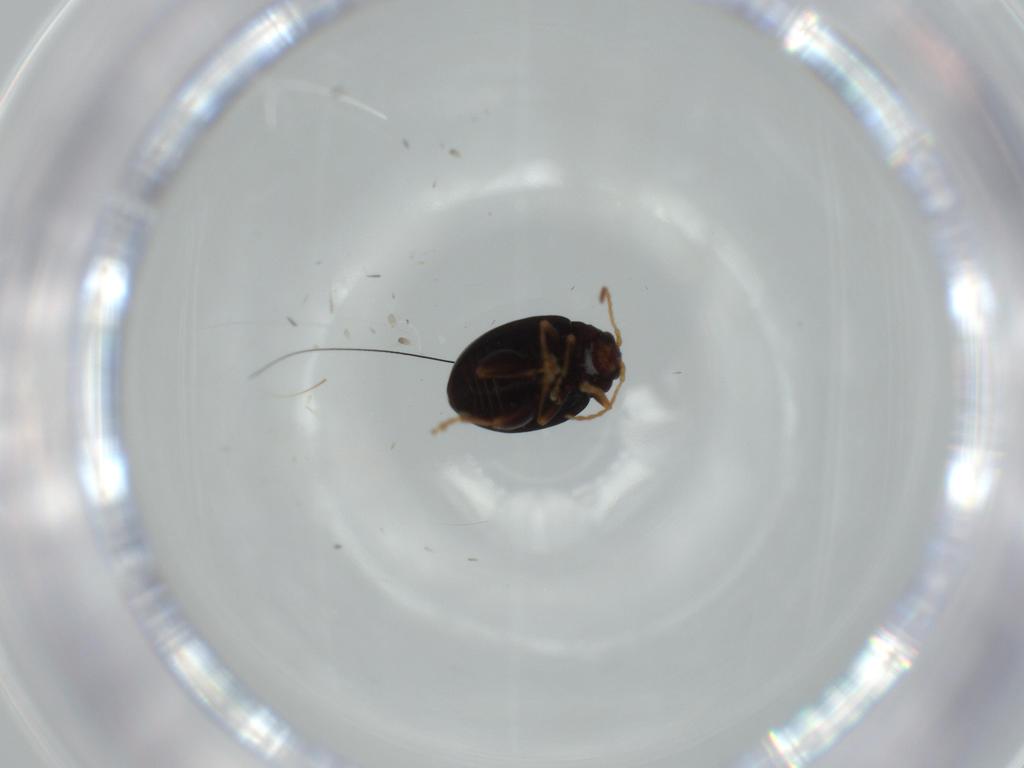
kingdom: Animalia
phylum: Arthropoda
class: Insecta
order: Coleoptera
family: Chrysomelidae
